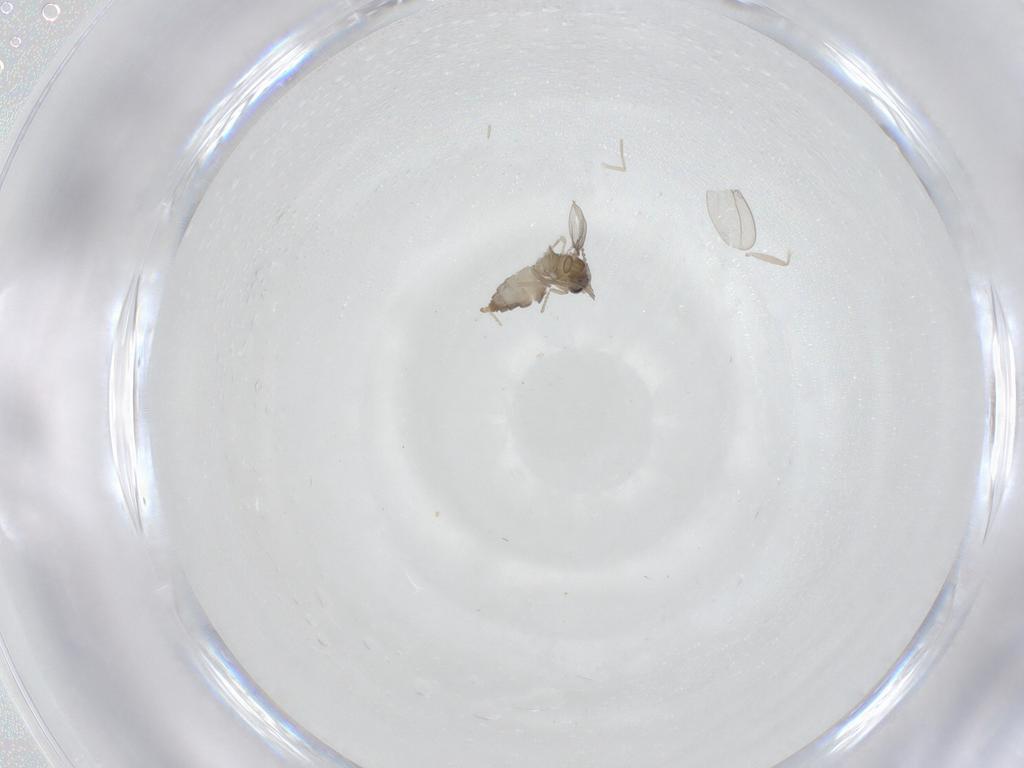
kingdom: Animalia
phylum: Arthropoda
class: Insecta
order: Diptera
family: Cecidomyiidae
